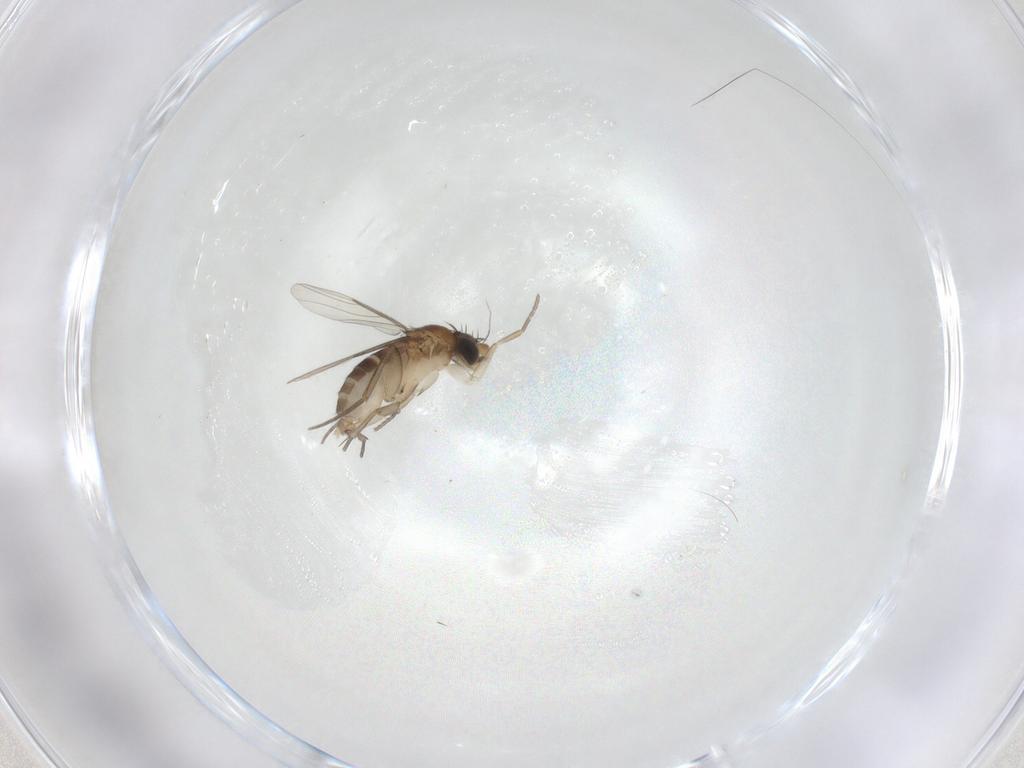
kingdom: Animalia
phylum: Arthropoda
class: Insecta
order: Diptera
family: Phoridae
